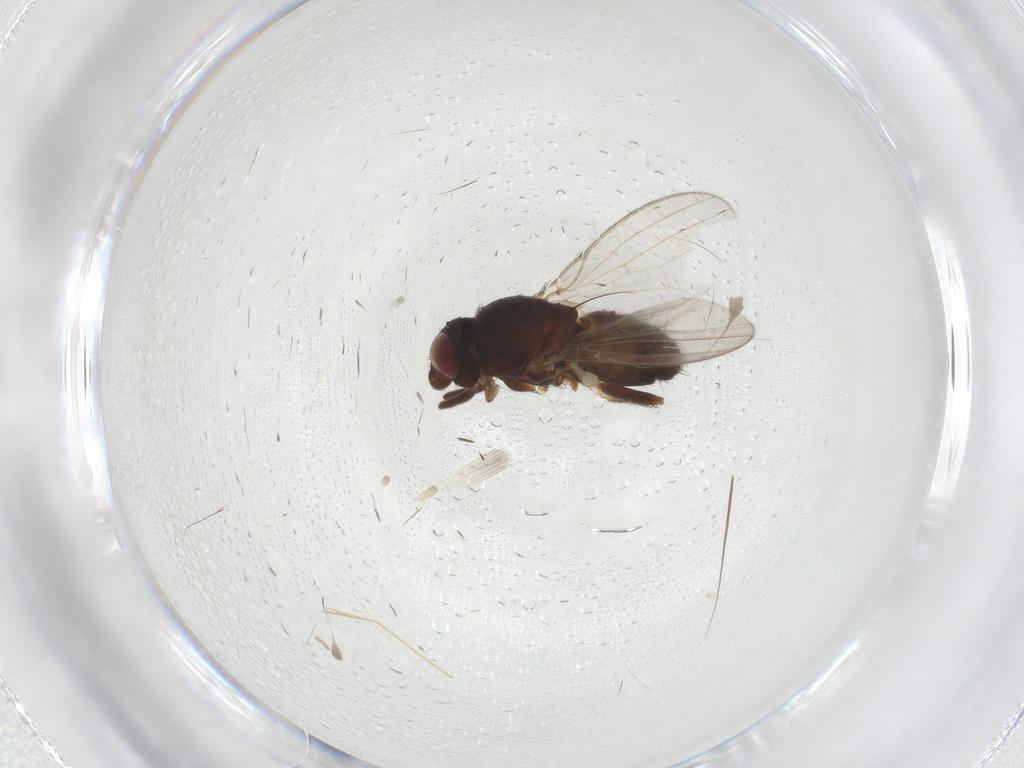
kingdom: Animalia
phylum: Arthropoda
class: Insecta
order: Diptera
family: Milichiidae
